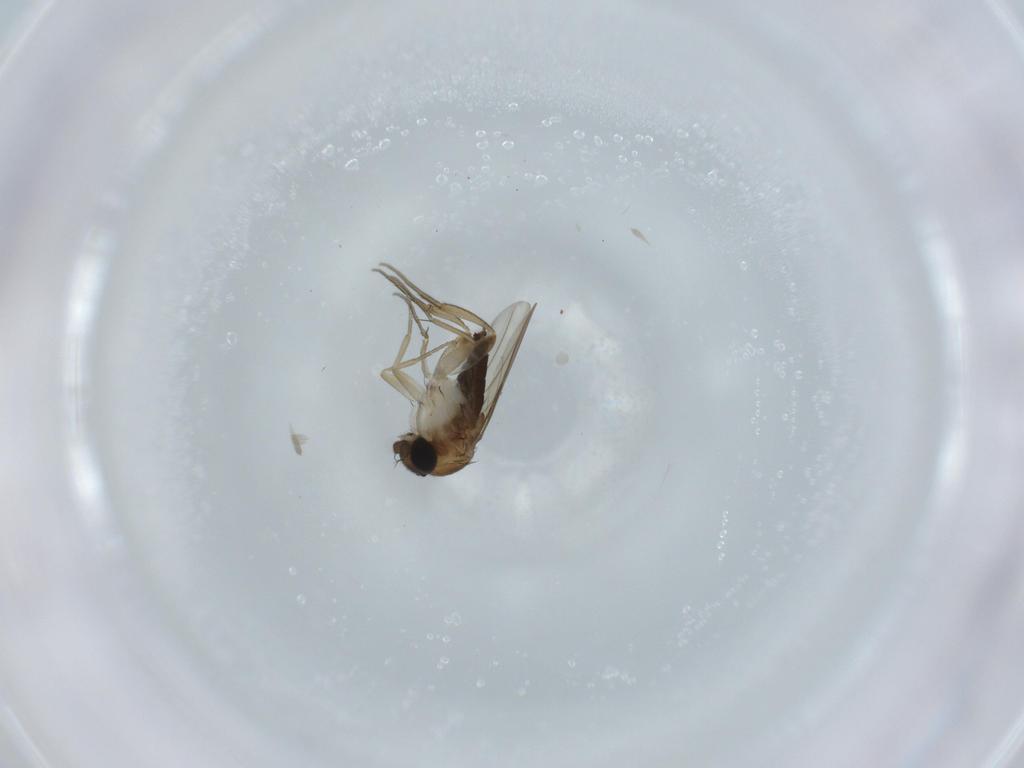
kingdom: Animalia
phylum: Arthropoda
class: Insecta
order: Diptera
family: Phoridae
